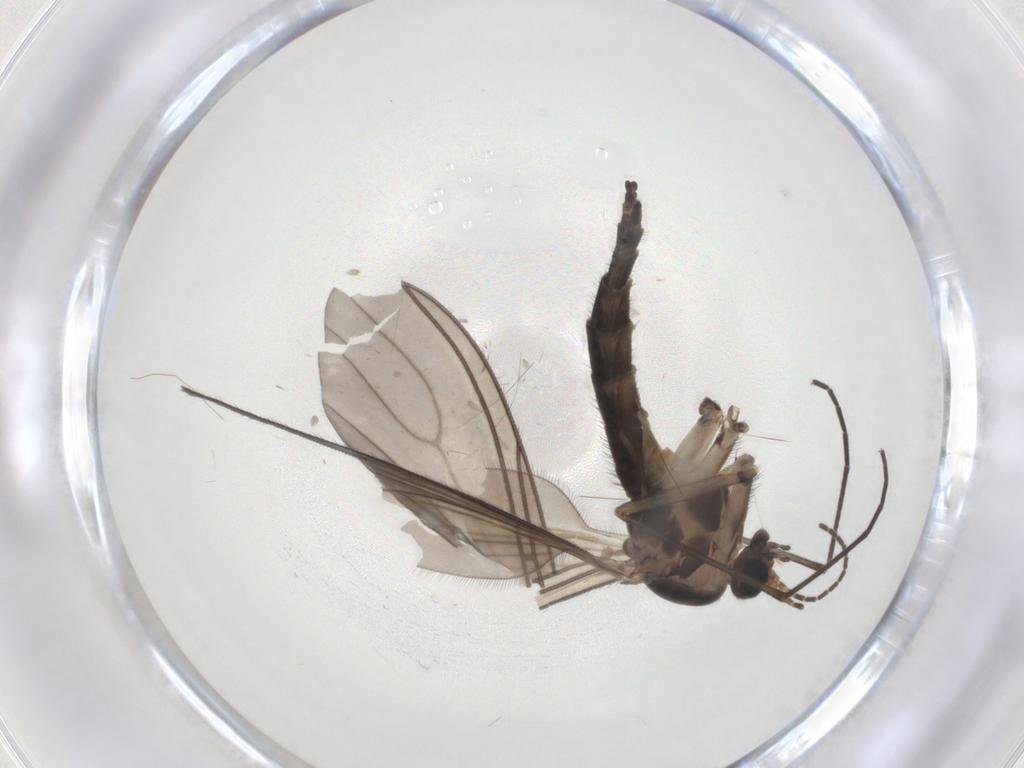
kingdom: Animalia
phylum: Arthropoda
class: Insecta
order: Diptera
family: Sciaridae
